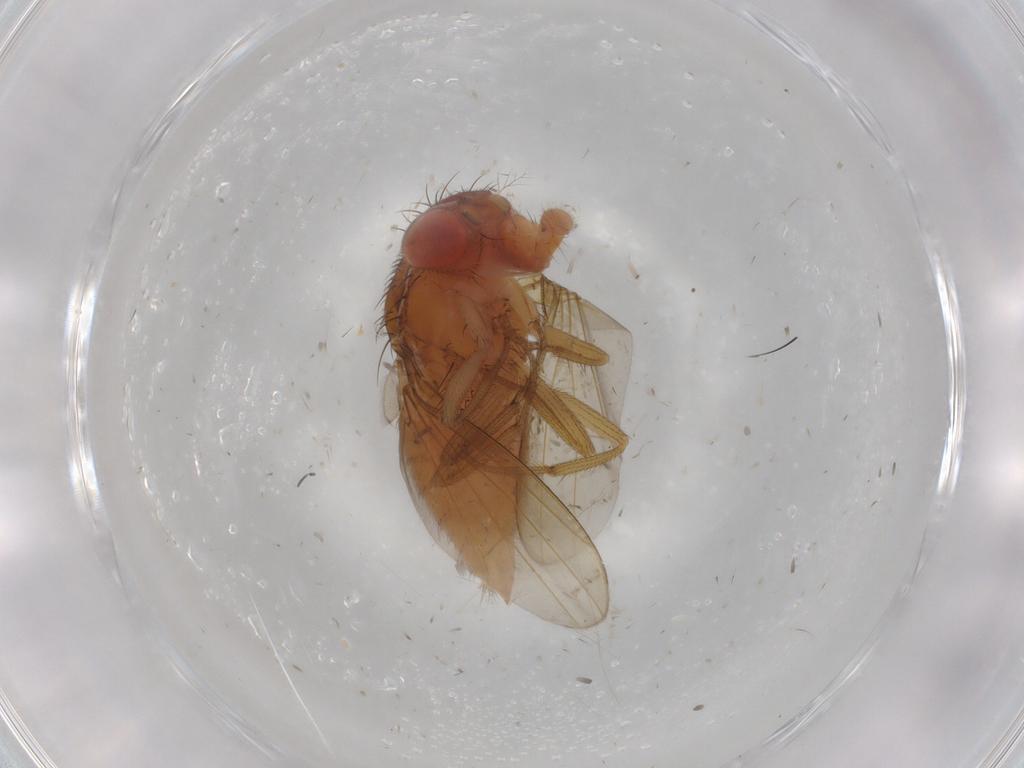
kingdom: Animalia
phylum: Arthropoda
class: Insecta
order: Diptera
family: Drosophilidae
